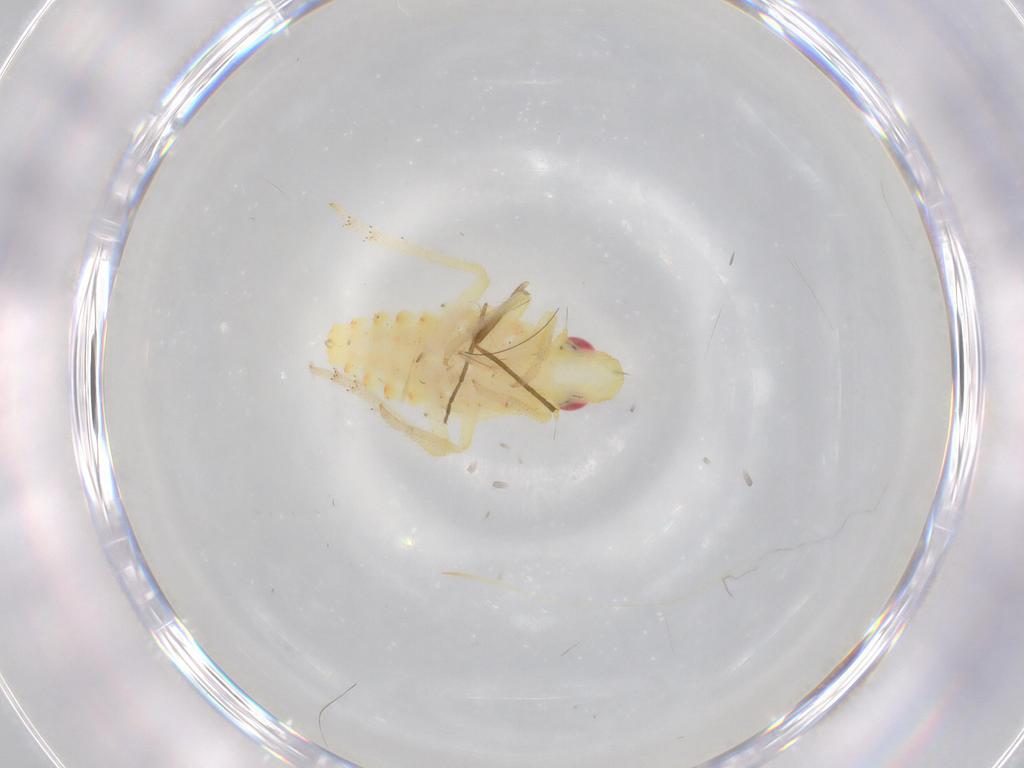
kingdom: Animalia
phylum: Arthropoda
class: Insecta
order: Hemiptera
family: Tropiduchidae
